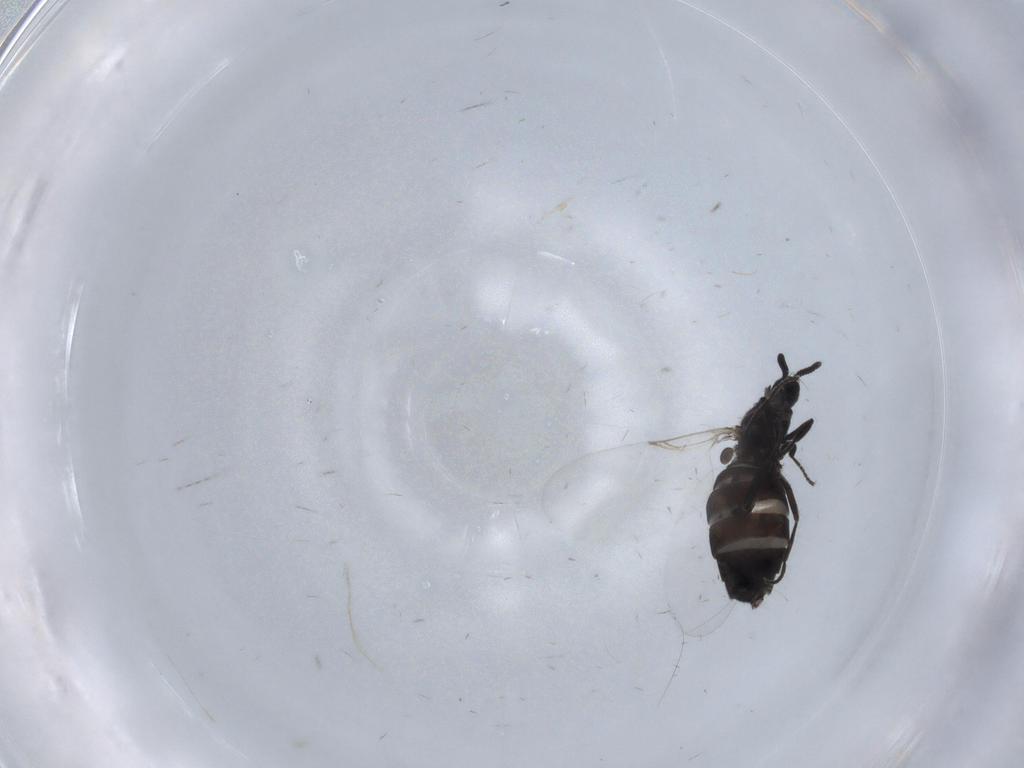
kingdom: Animalia
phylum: Arthropoda
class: Insecta
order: Diptera
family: Scatopsidae
